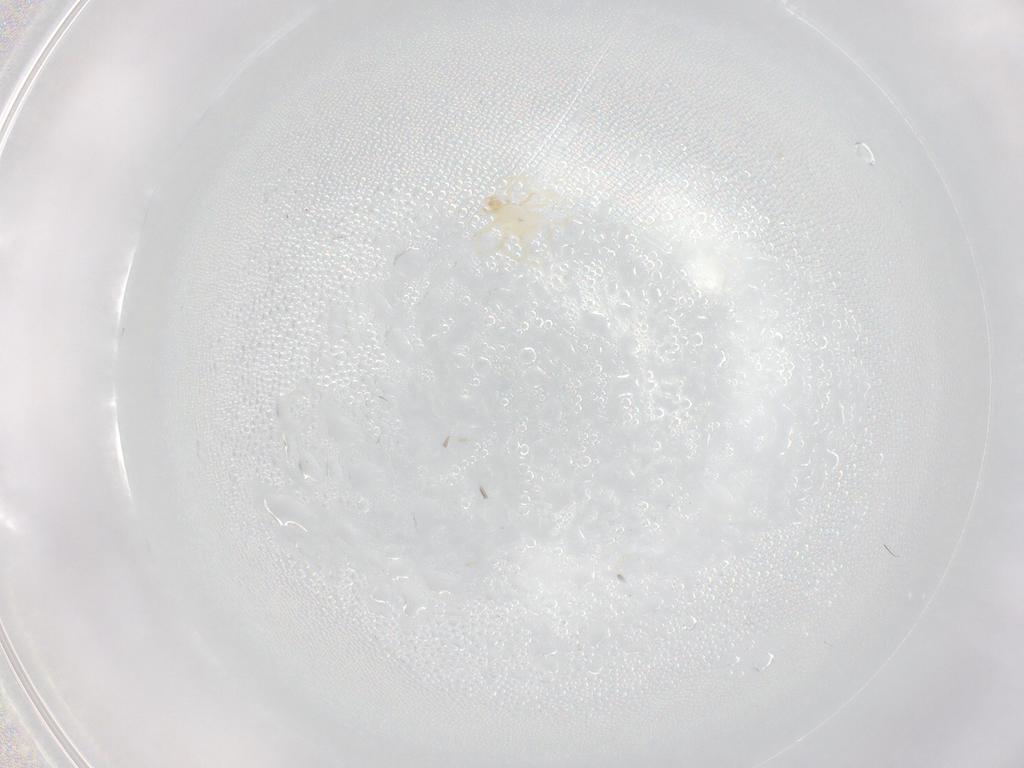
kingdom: Animalia
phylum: Arthropoda
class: Arachnida
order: Trombidiformes
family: Erythraeidae
